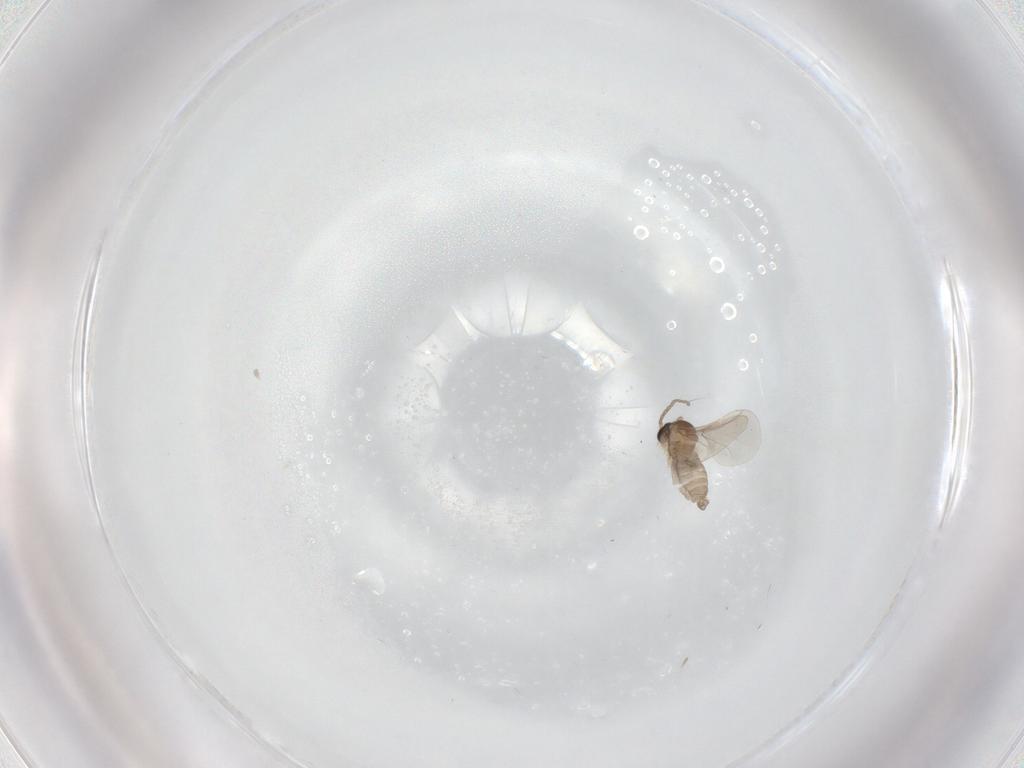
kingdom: Animalia
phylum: Arthropoda
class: Insecta
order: Diptera
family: Cecidomyiidae
